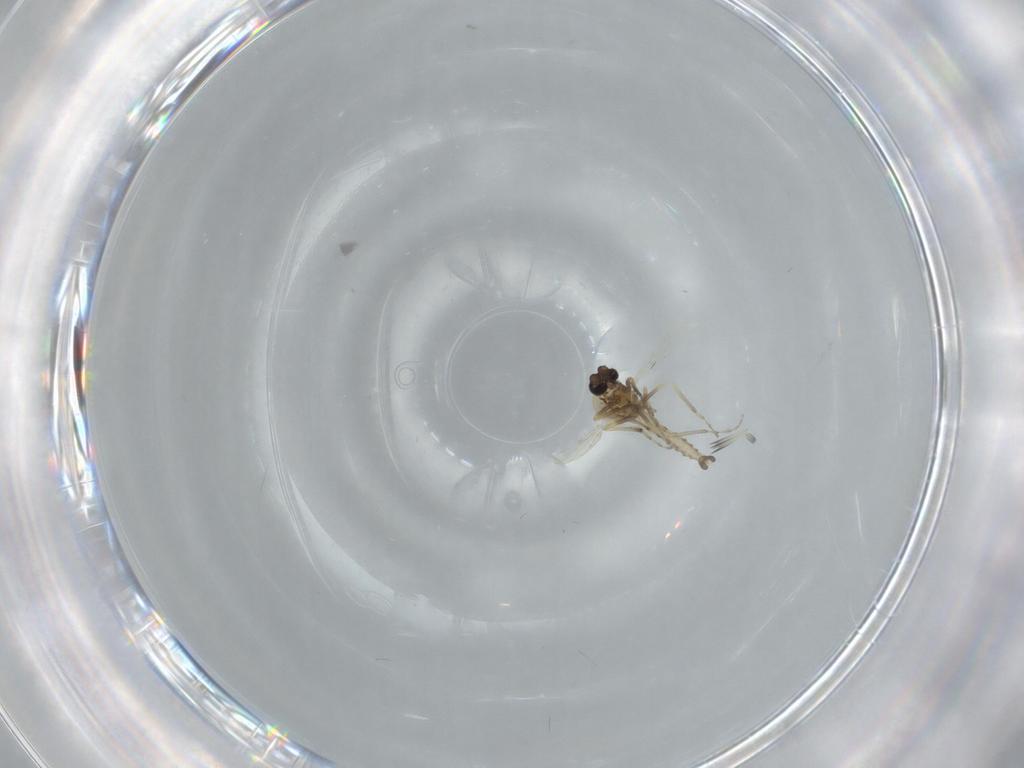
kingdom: Animalia
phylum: Arthropoda
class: Insecta
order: Diptera
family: Ceratopogonidae
